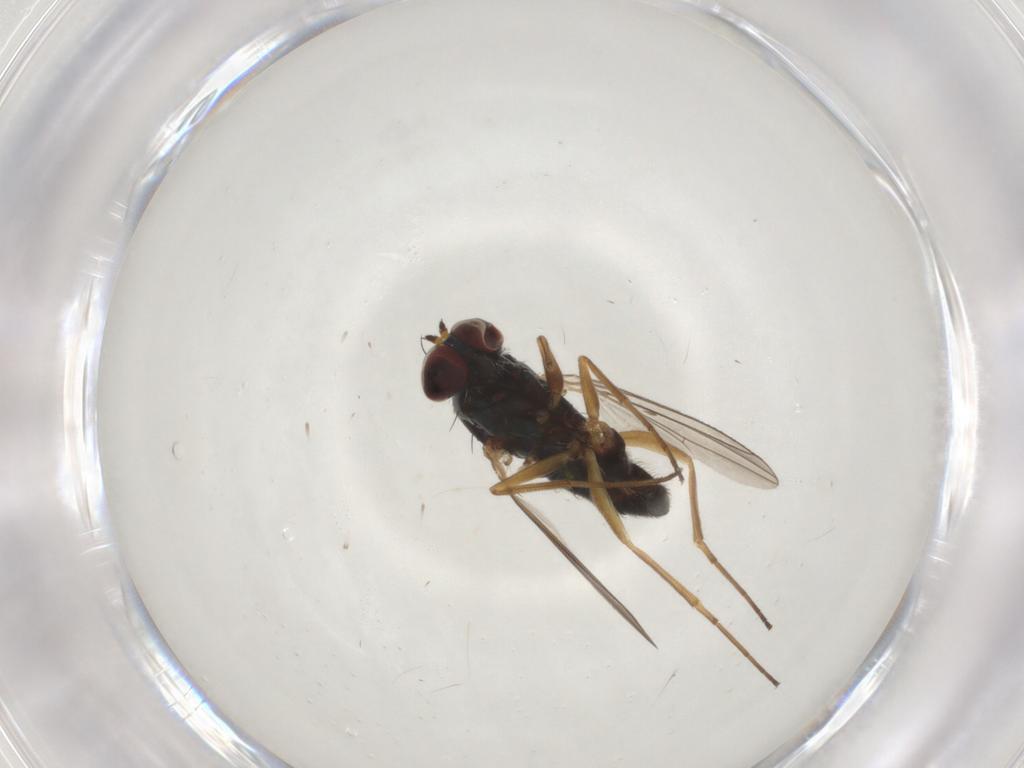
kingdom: Animalia
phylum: Arthropoda
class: Insecta
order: Diptera
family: Dolichopodidae
